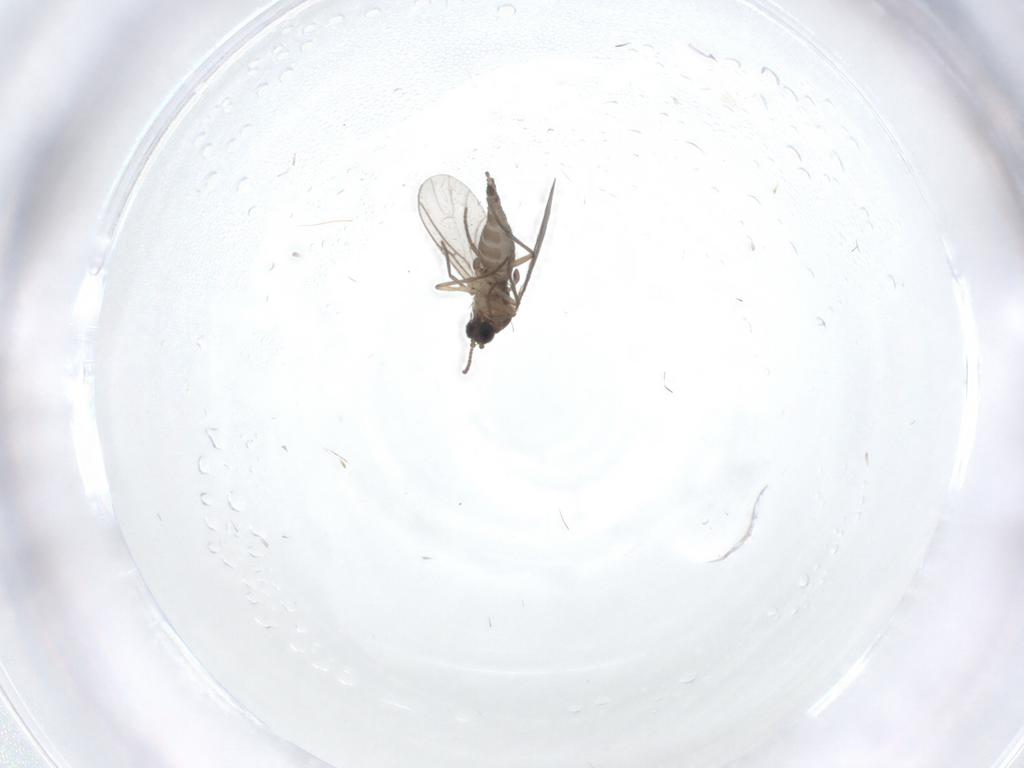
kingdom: Animalia
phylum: Arthropoda
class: Insecta
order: Diptera
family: Sciaridae
